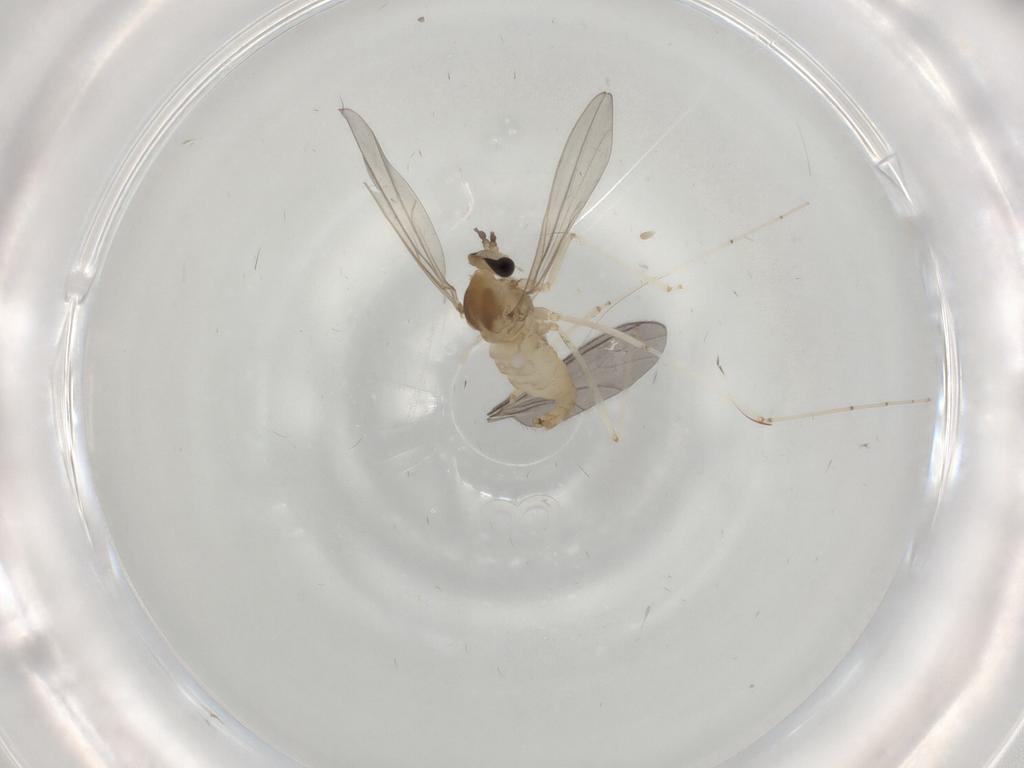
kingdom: Animalia
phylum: Arthropoda
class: Insecta
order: Diptera
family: Cecidomyiidae
